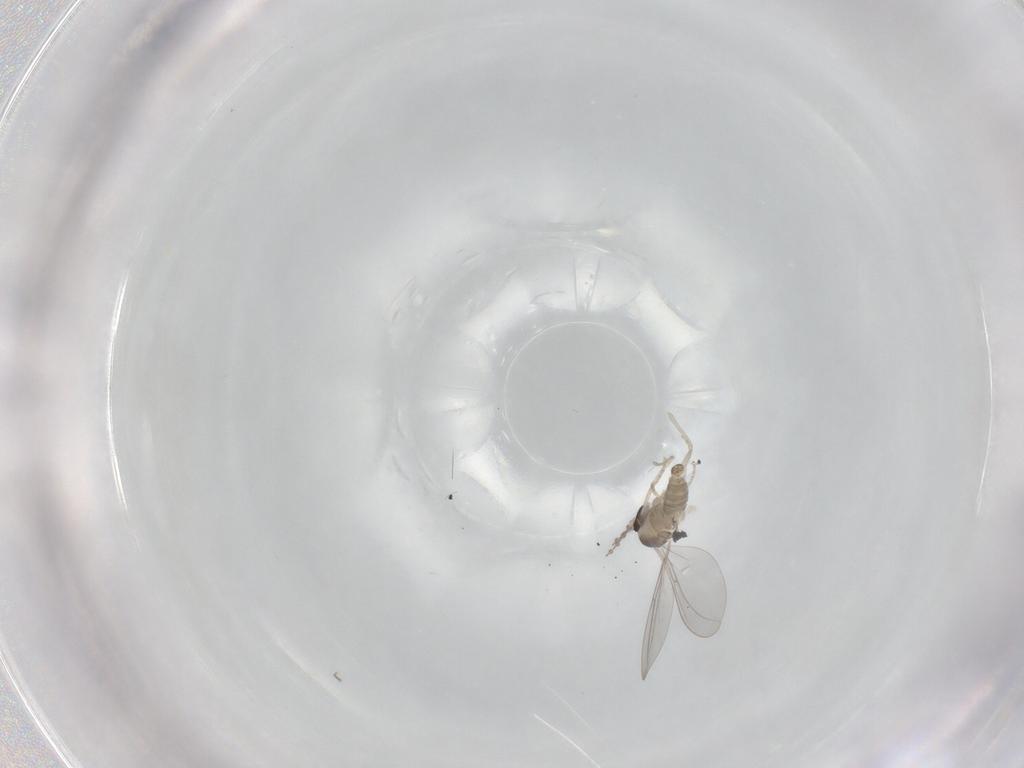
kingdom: Animalia
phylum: Arthropoda
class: Insecta
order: Diptera
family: Cecidomyiidae
